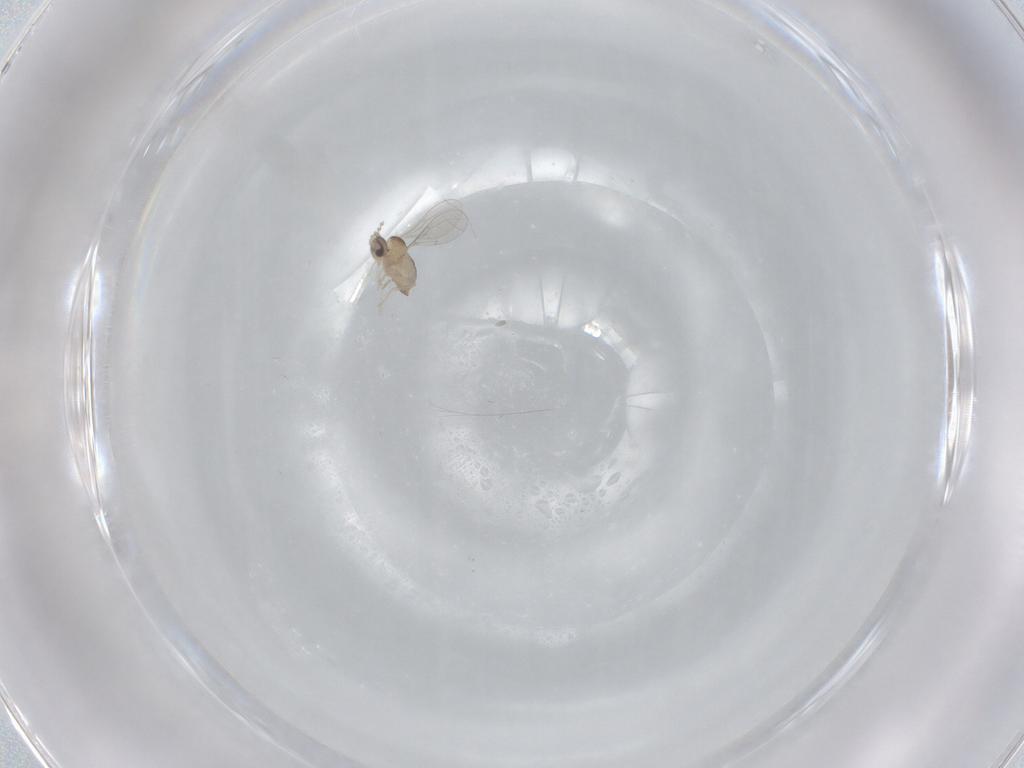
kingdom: Animalia
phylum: Arthropoda
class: Insecta
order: Diptera
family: Cecidomyiidae
